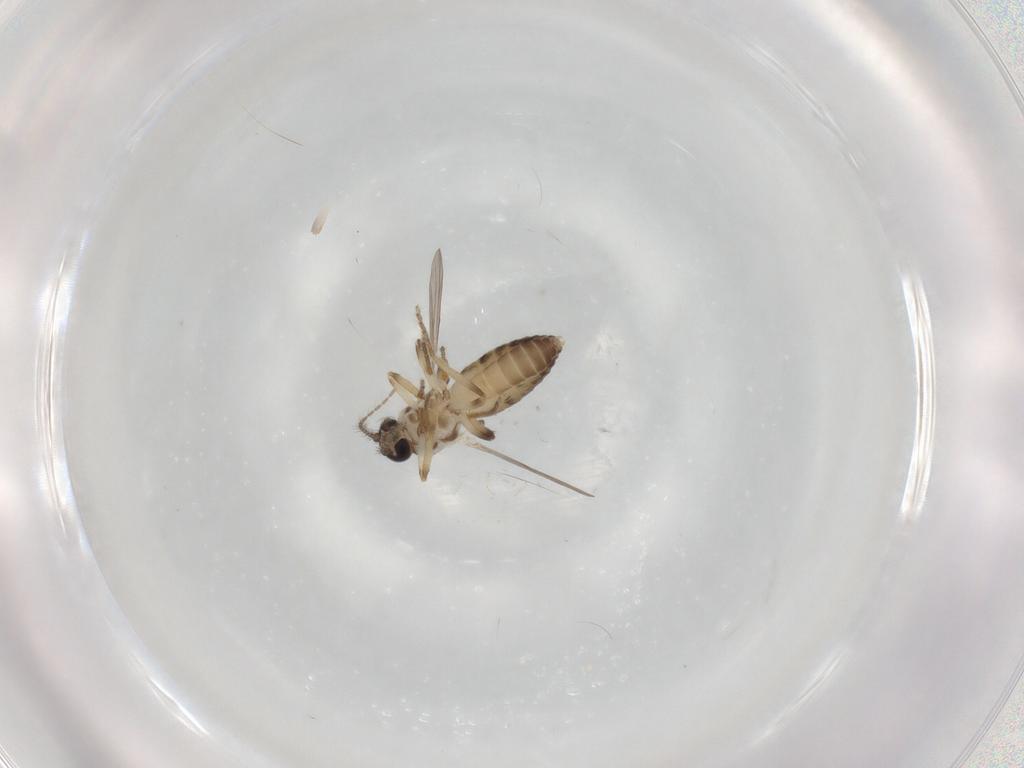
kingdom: Animalia
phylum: Arthropoda
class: Insecta
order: Diptera
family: Ceratopogonidae
